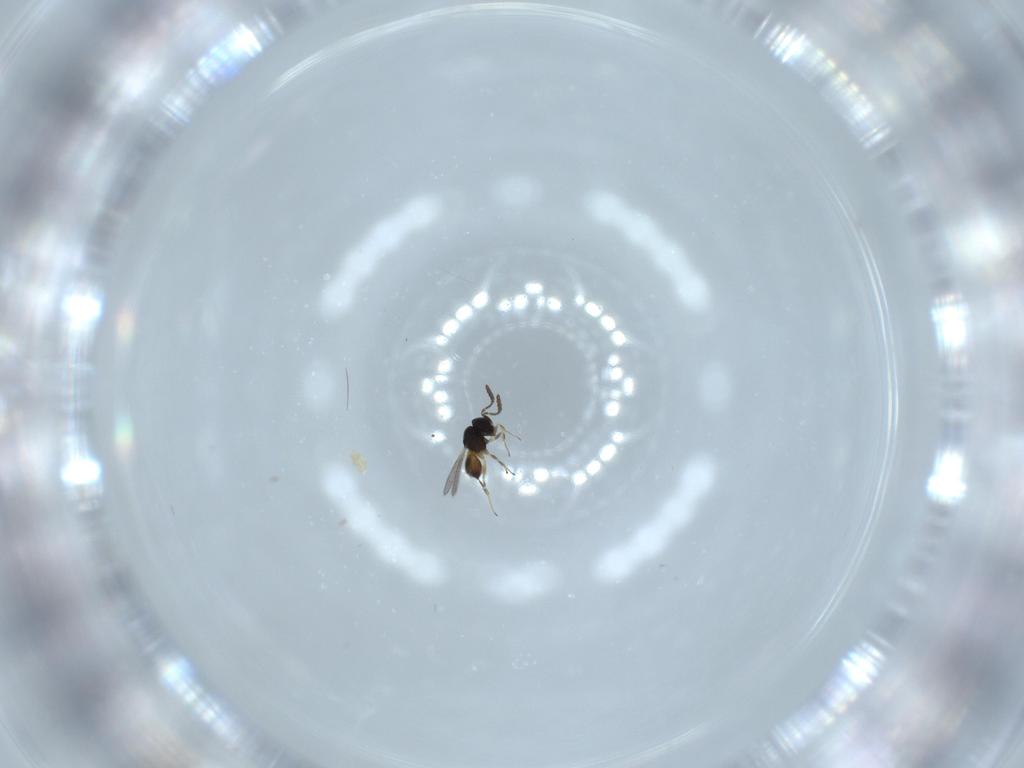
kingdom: Animalia
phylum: Arthropoda
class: Insecta
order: Hymenoptera
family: Scelionidae
